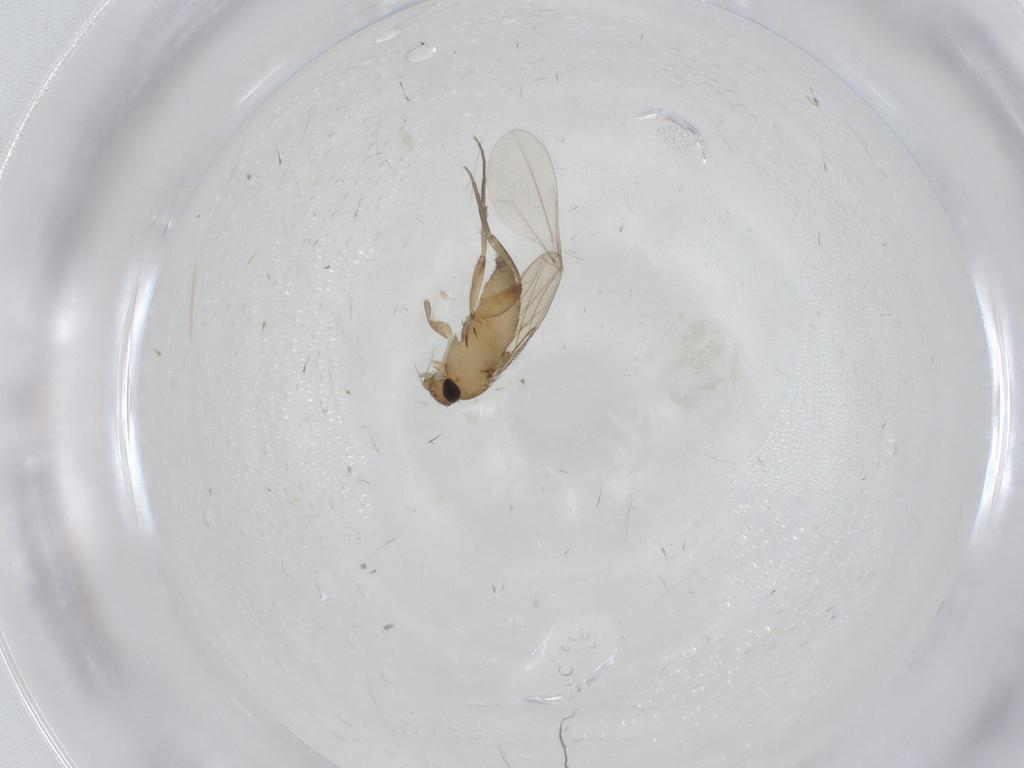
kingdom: Animalia
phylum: Arthropoda
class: Insecta
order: Diptera
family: Cecidomyiidae
